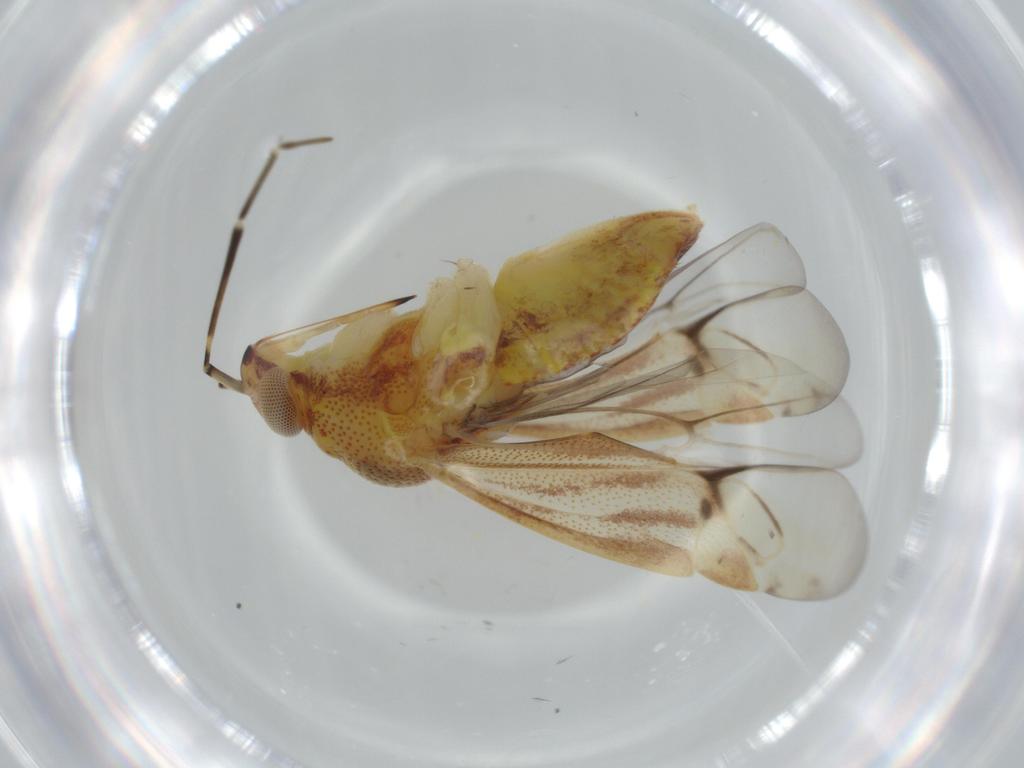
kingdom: Animalia
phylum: Arthropoda
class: Insecta
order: Hemiptera
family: Miridae
